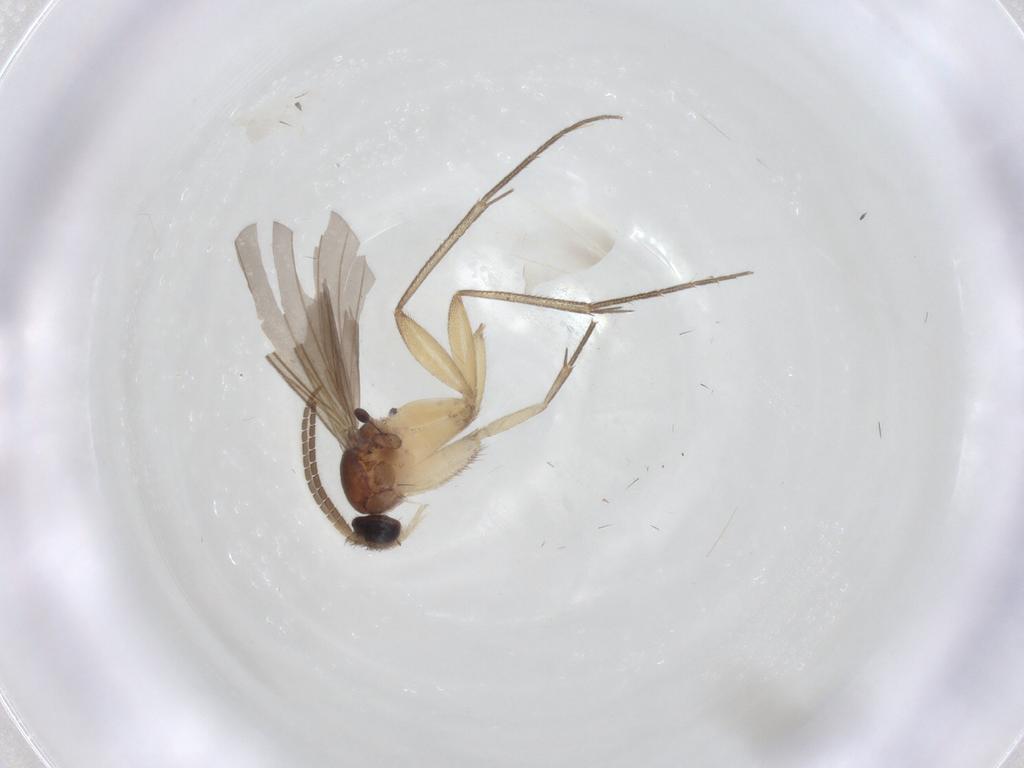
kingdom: Animalia
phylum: Arthropoda
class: Insecta
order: Diptera
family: Mycetophilidae
